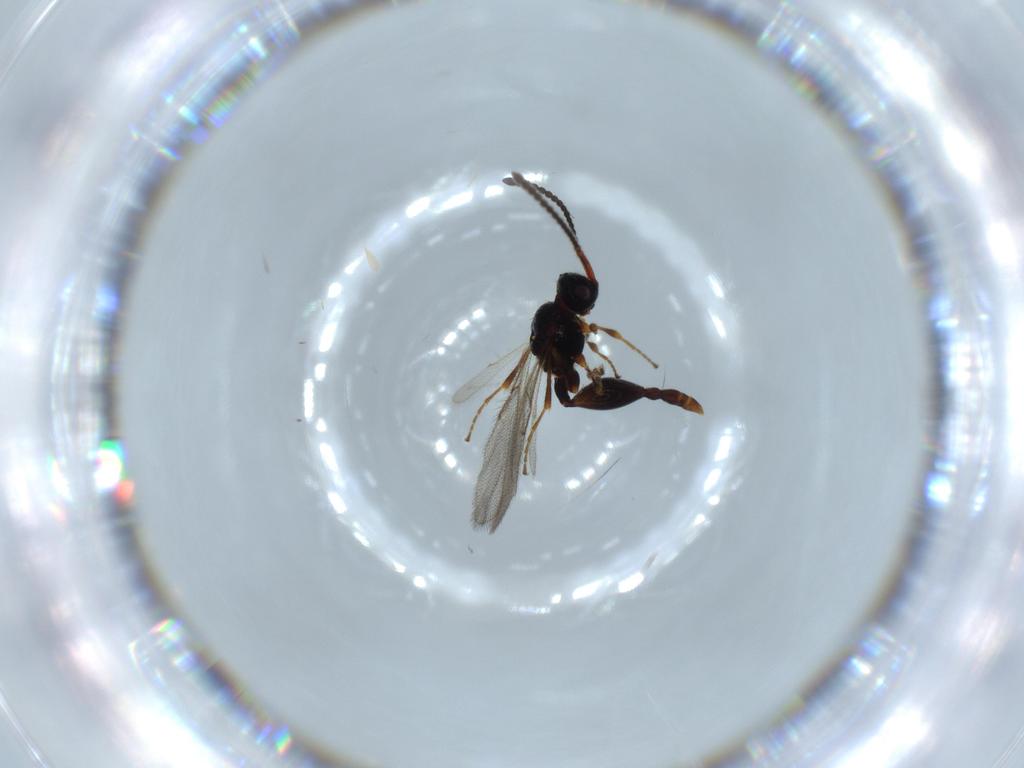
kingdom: Animalia
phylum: Arthropoda
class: Insecta
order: Hymenoptera
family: Diapriidae
